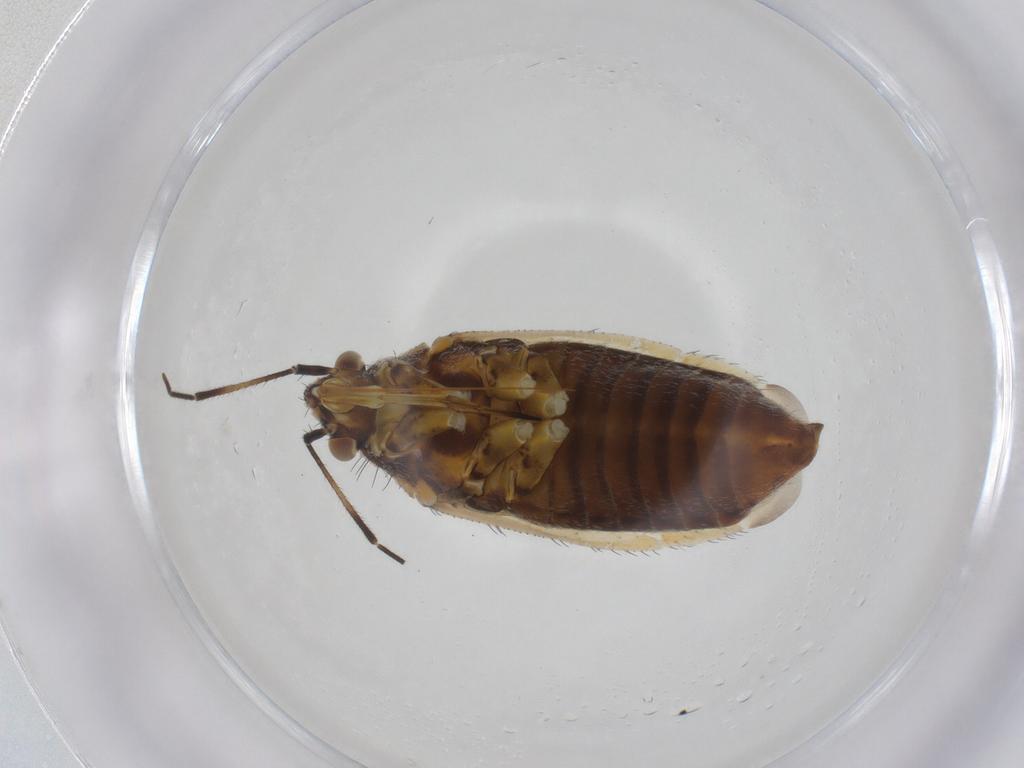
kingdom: Animalia
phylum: Arthropoda
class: Insecta
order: Hemiptera
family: Miridae
